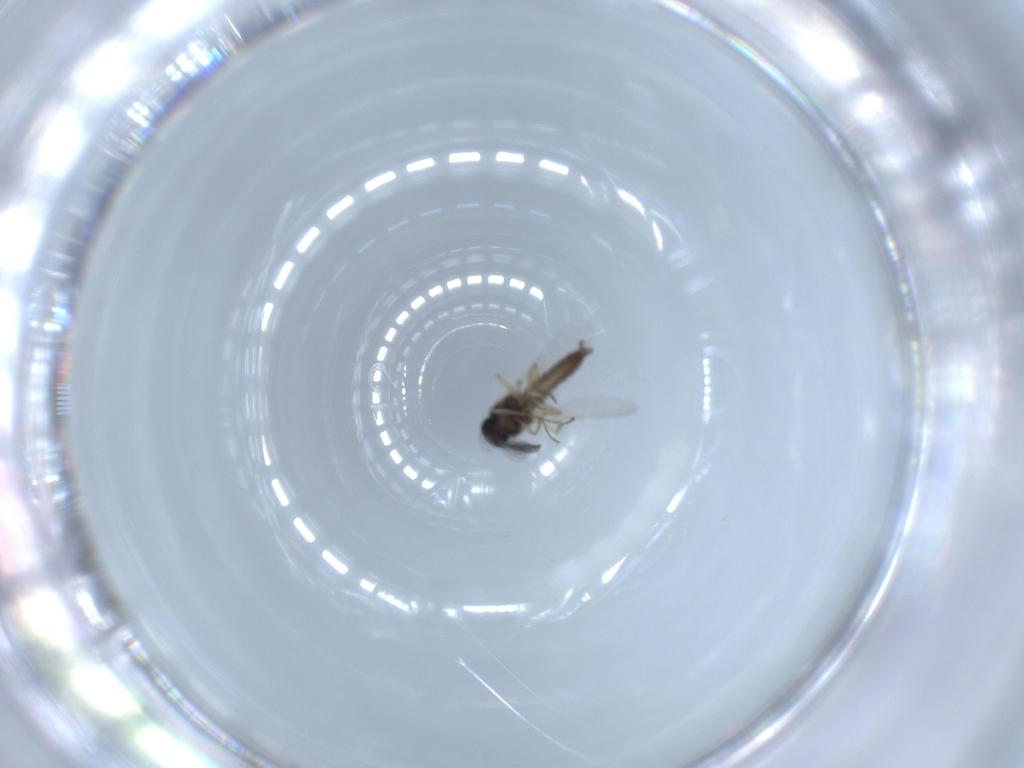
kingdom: Animalia
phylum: Arthropoda
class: Insecta
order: Diptera
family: Ceratopogonidae
